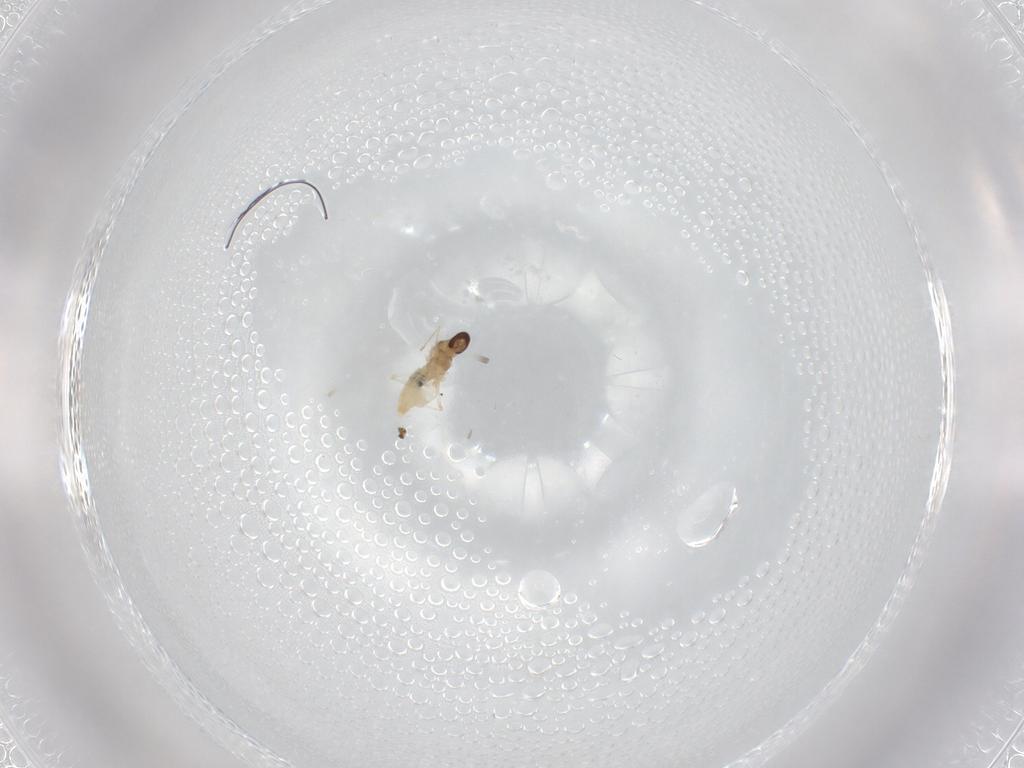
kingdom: Animalia
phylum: Arthropoda
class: Insecta
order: Diptera
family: Cecidomyiidae
